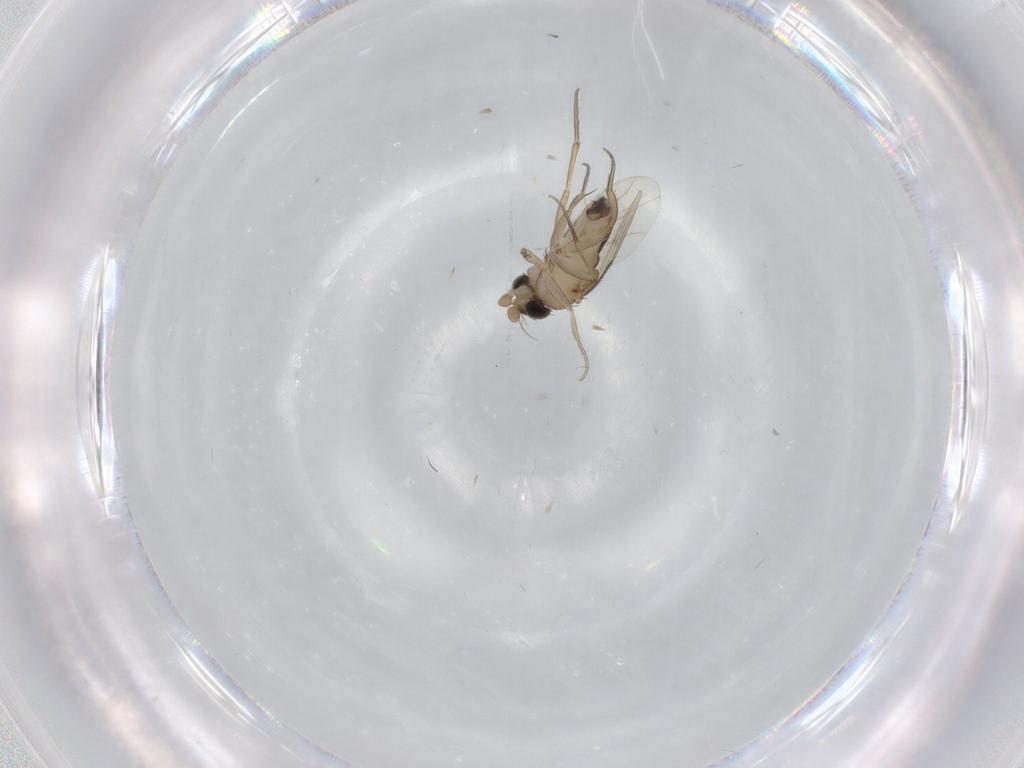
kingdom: Animalia
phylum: Arthropoda
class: Insecta
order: Diptera
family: Phoridae
